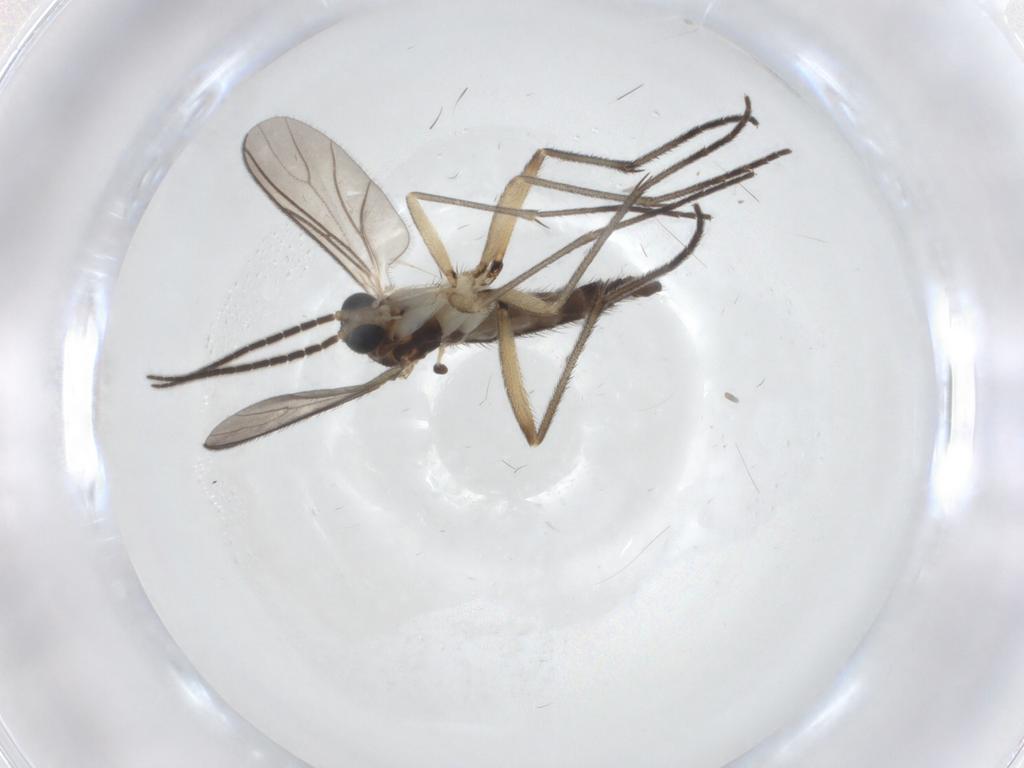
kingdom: Animalia
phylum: Arthropoda
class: Insecta
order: Diptera
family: Sciaridae
